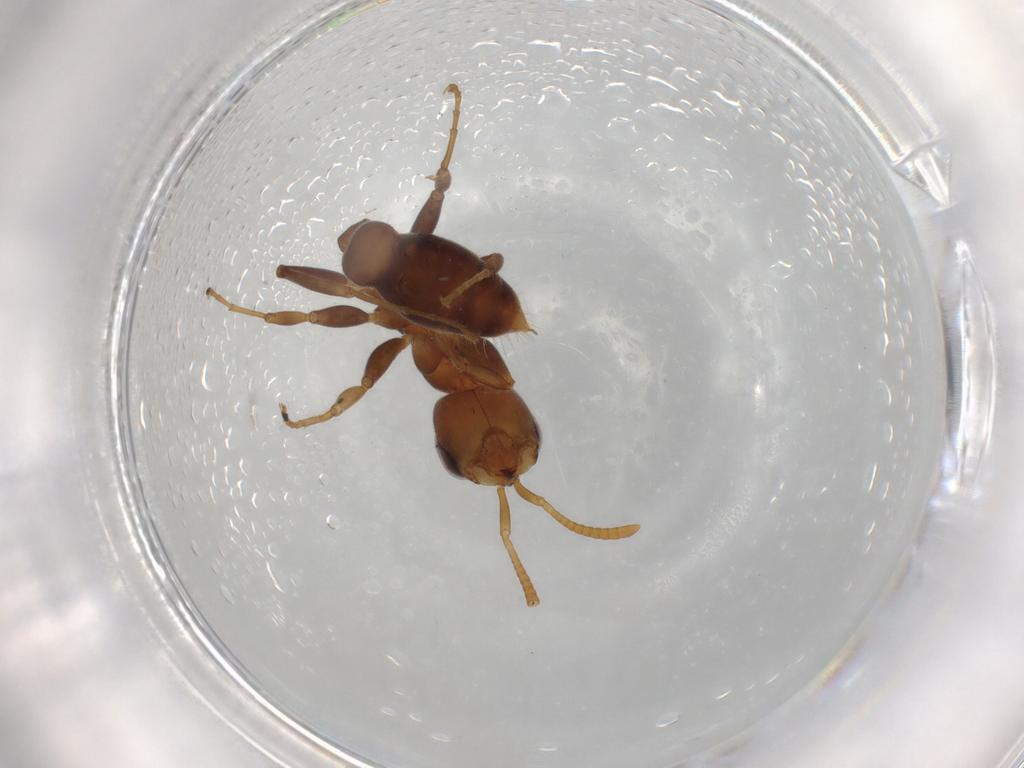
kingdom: Animalia
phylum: Arthropoda
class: Insecta
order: Hymenoptera
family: Formicidae
